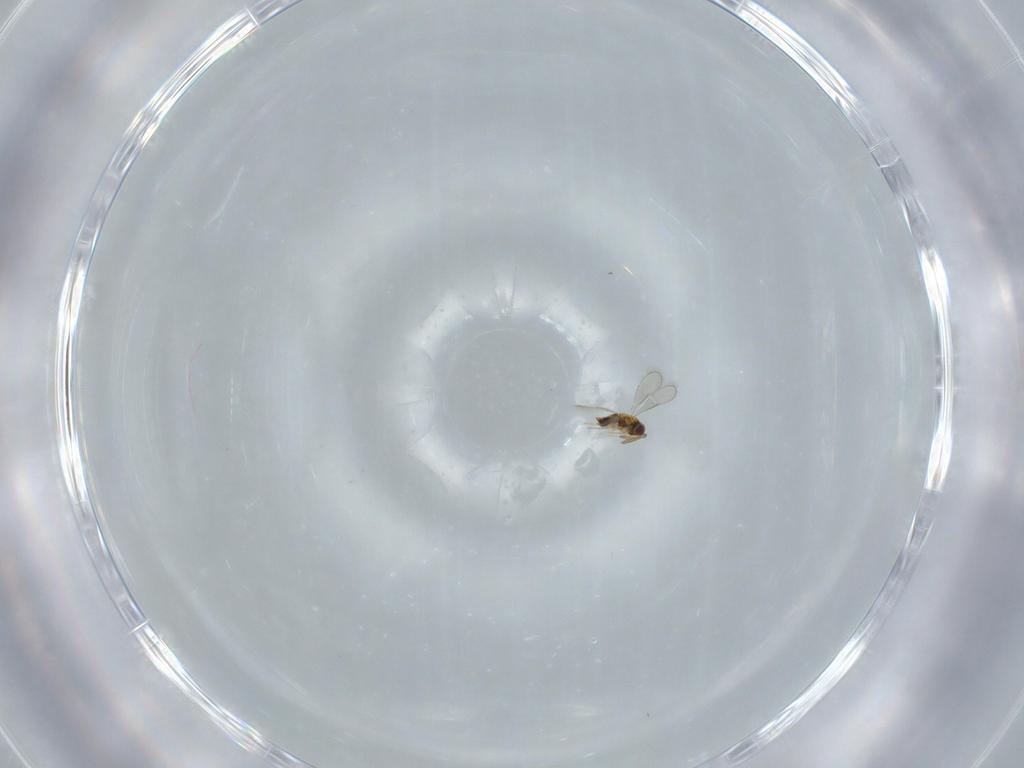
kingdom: Animalia
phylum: Arthropoda
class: Insecta
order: Hymenoptera
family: Aphelinidae
